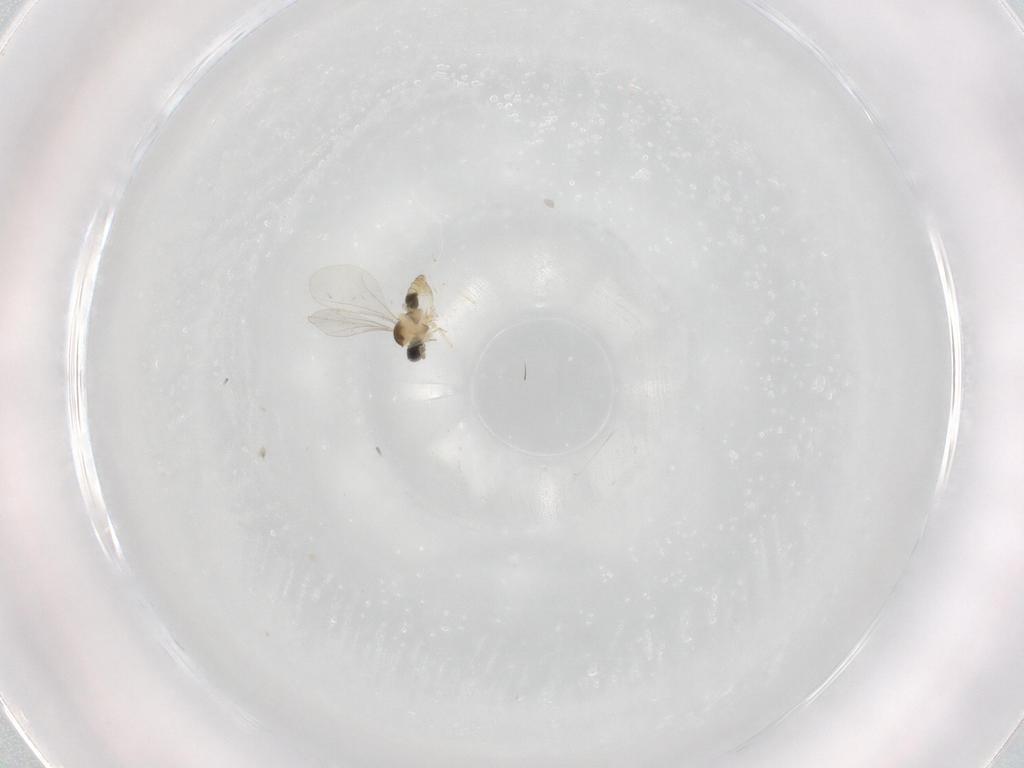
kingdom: Animalia
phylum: Arthropoda
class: Insecta
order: Diptera
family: Cecidomyiidae
